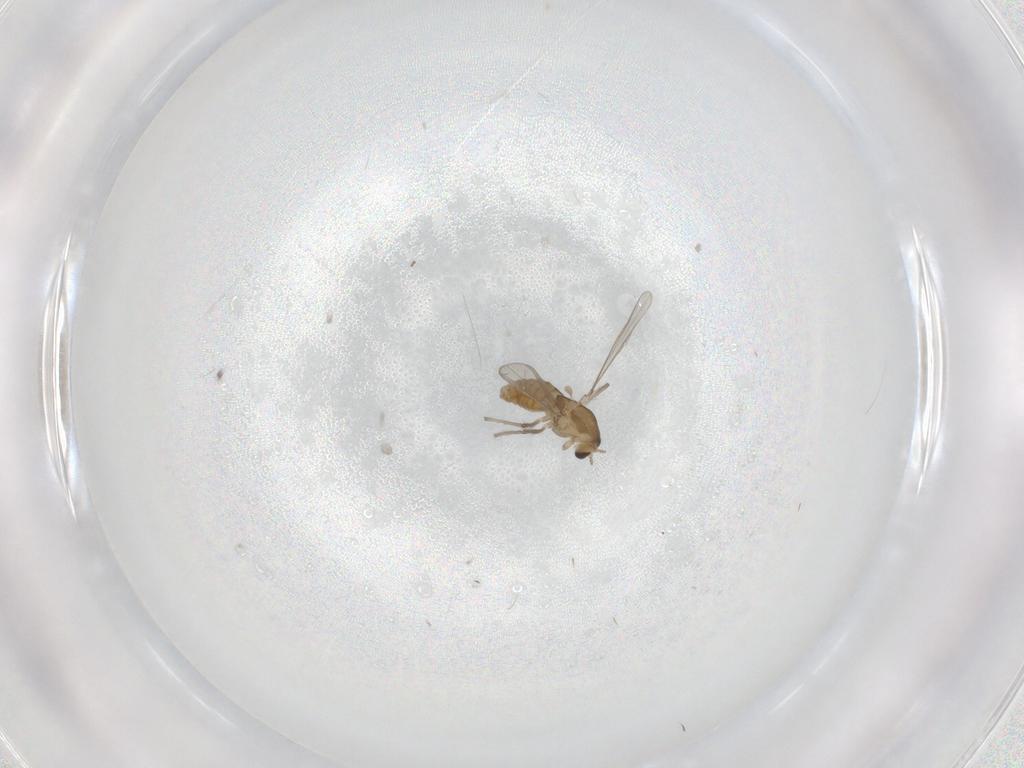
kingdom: Animalia
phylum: Arthropoda
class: Insecta
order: Diptera
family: Chloropidae
